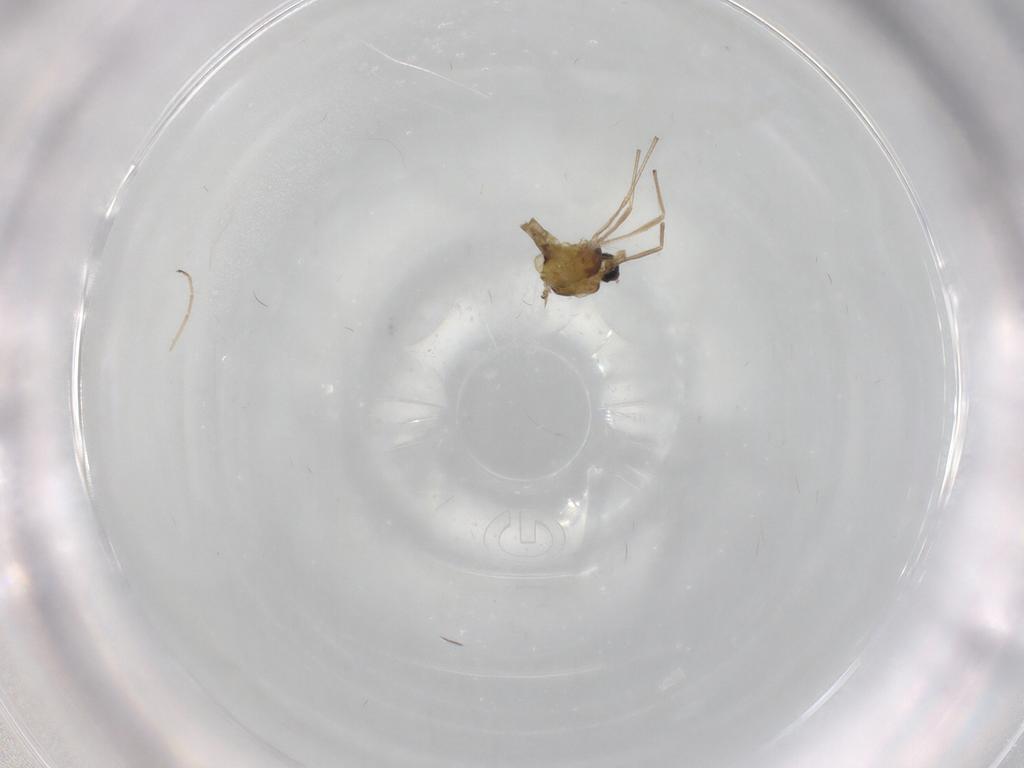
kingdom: Animalia
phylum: Arthropoda
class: Insecta
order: Diptera
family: Chironomidae
